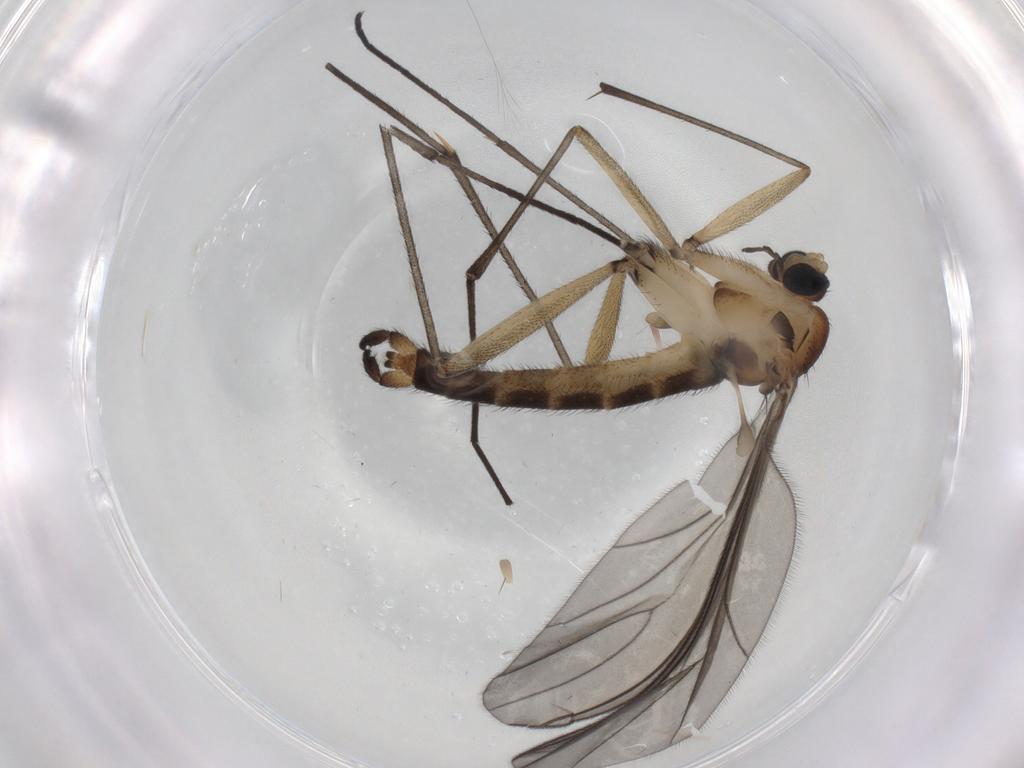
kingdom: Animalia
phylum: Arthropoda
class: Insecta
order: Diptera
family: Sciaridae
